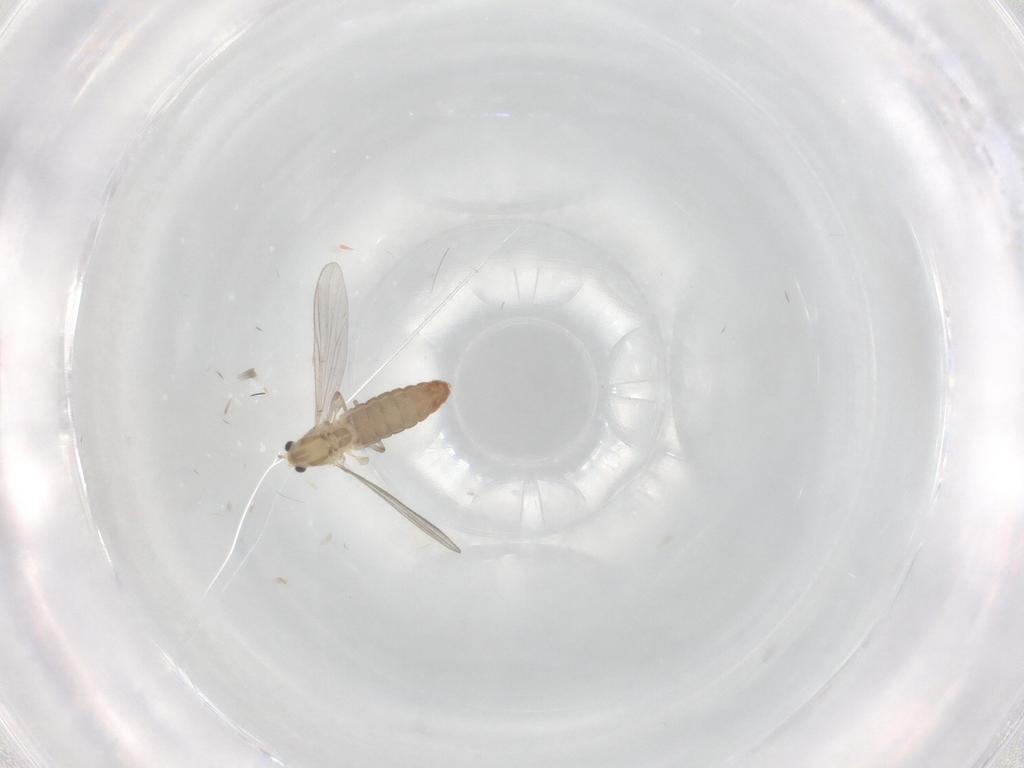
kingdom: Animalia
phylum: Arthropoda
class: Insecta
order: Diptera
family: Chironomidae
